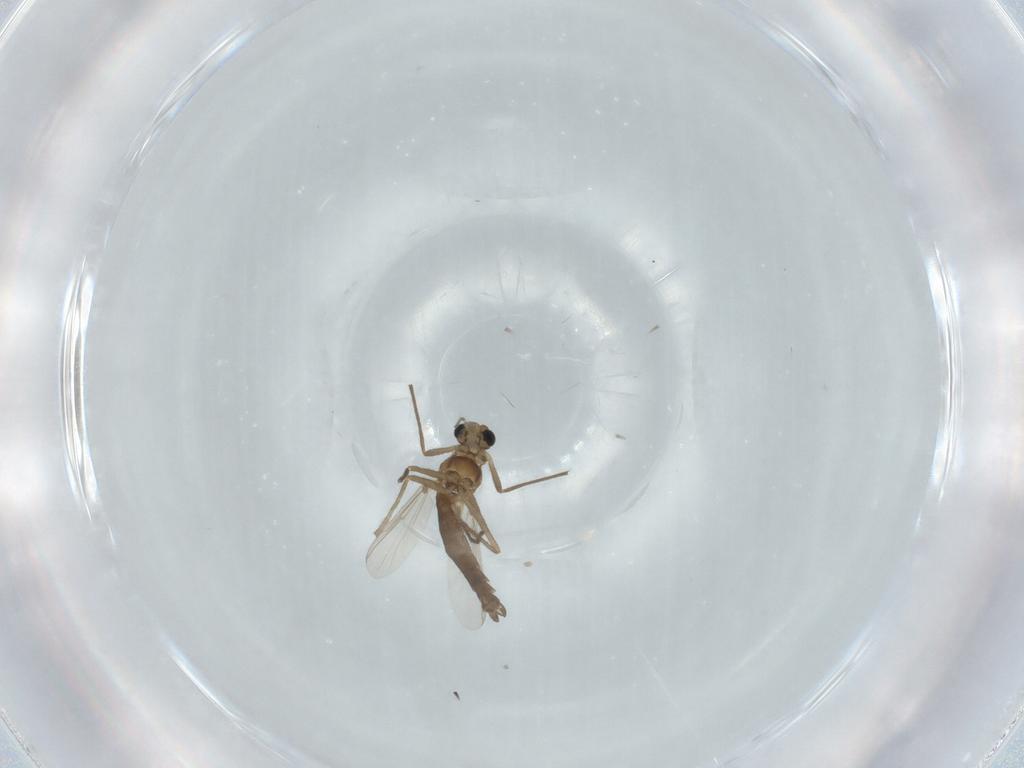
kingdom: Animalia
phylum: Arthropoda
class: Insecta
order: Diptera
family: Chironomidae
